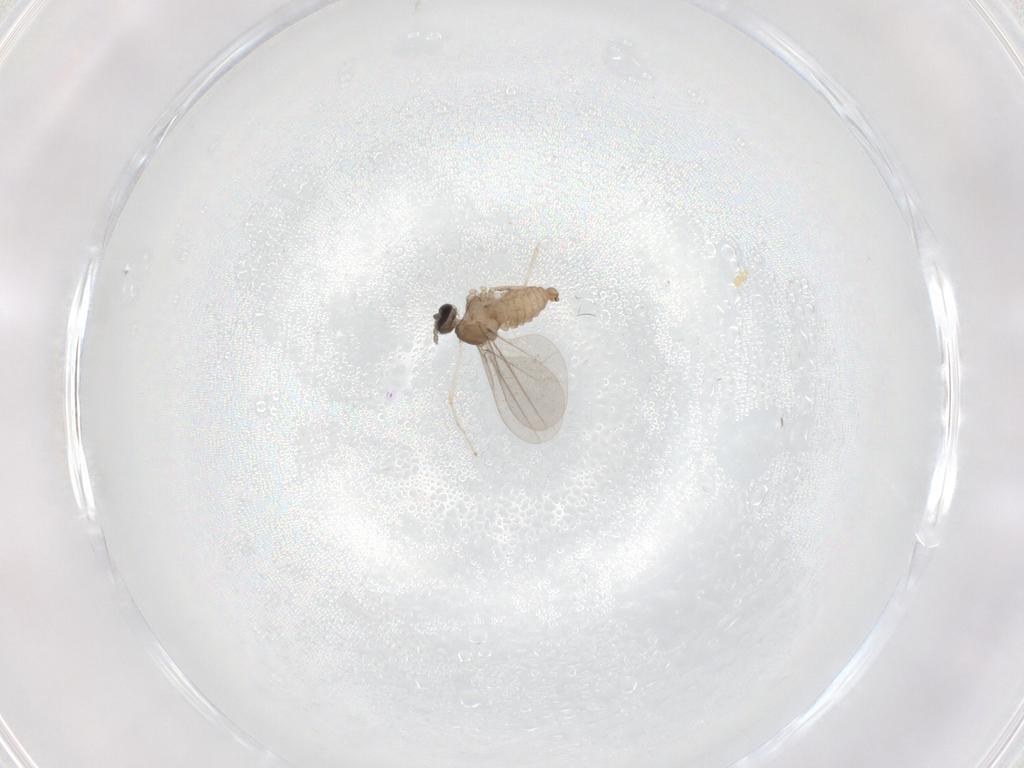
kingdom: Animalia
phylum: Arthropoda
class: Insecta
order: Diptera
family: Cecidomyiidae
